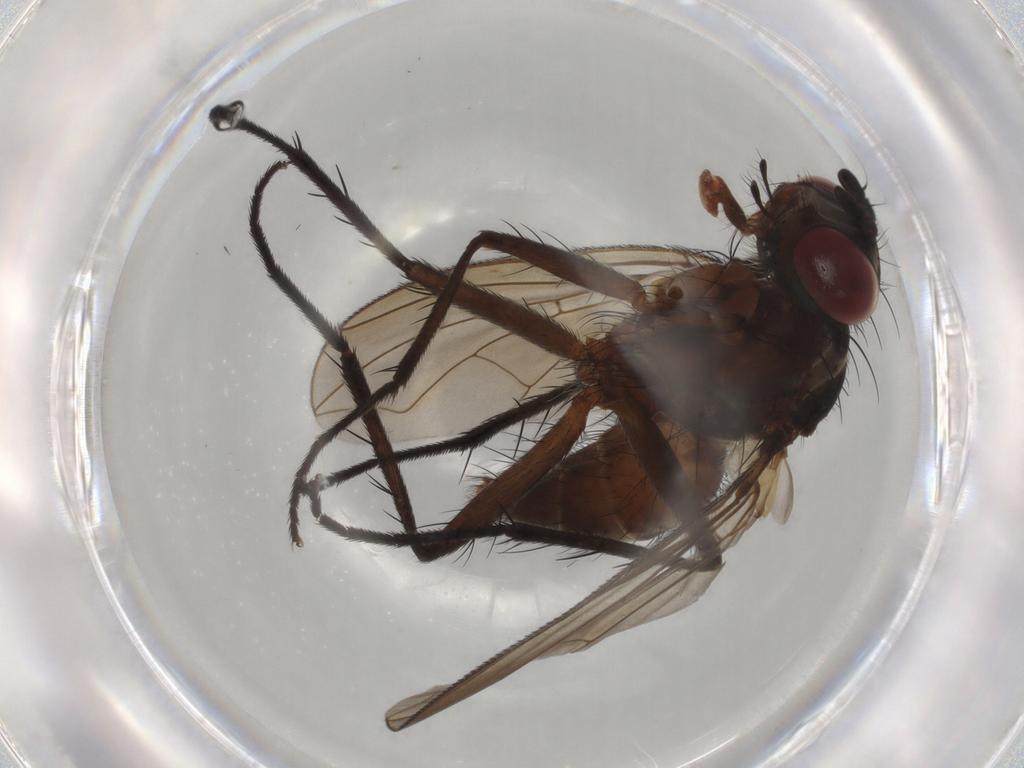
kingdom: Animalia
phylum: Arthropoda
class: Insecta
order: Diptera
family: Muscidae
